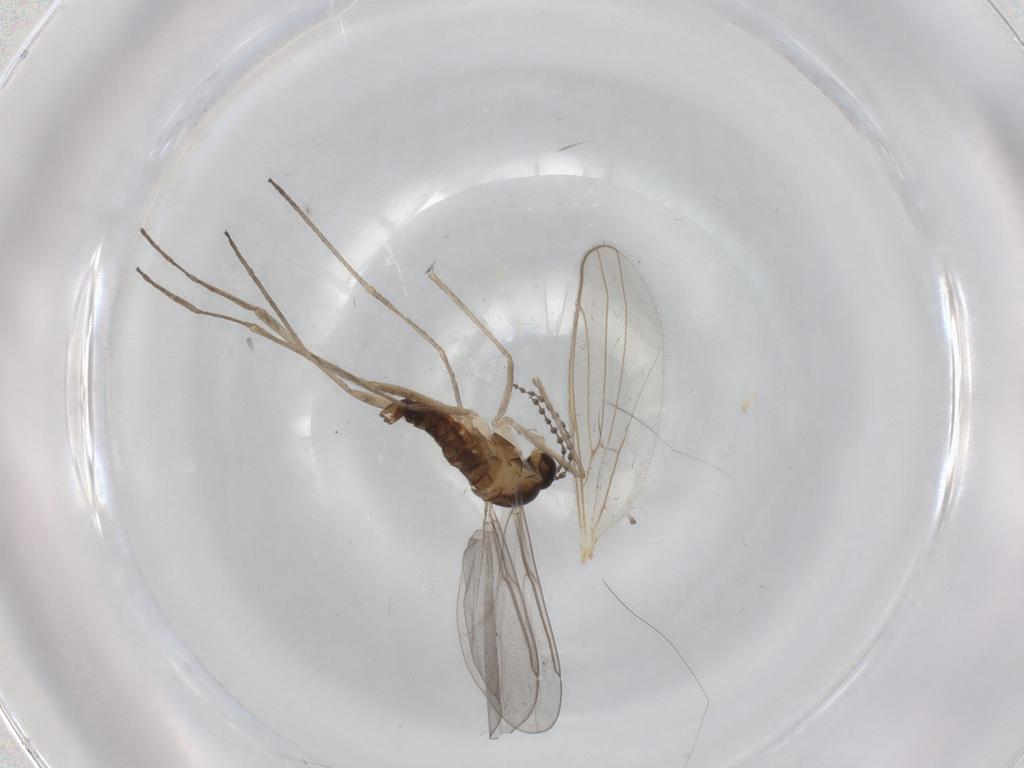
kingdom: Animalia
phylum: Arthropoda
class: Insecta
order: Diptera
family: Cecidomyiidae
